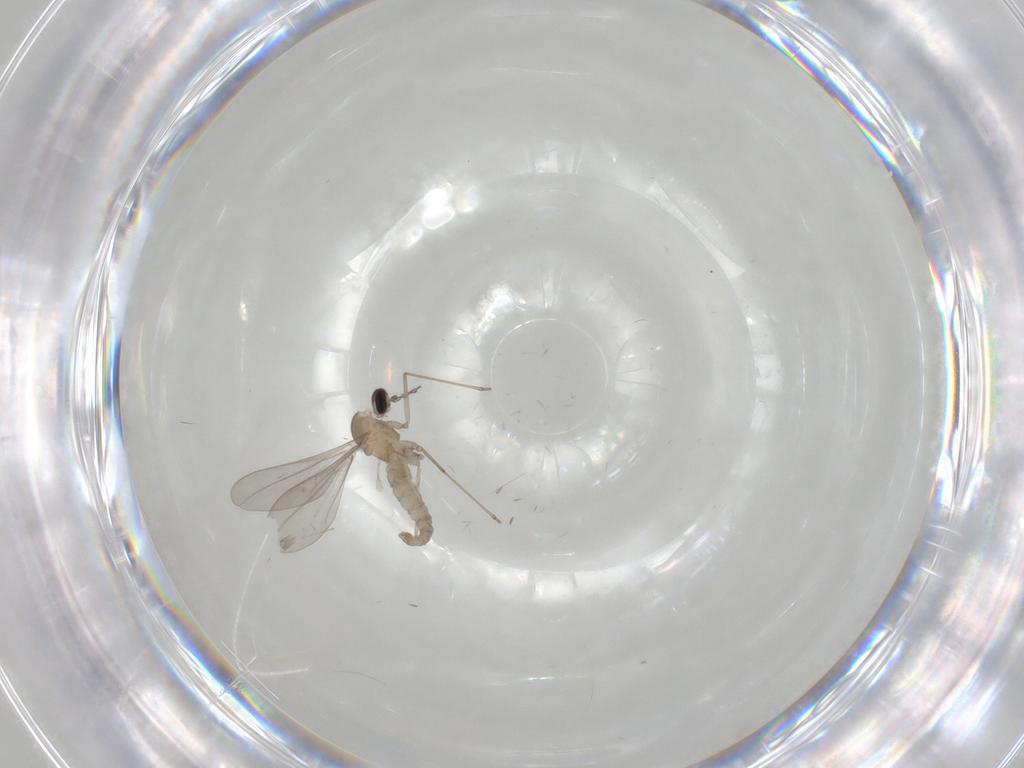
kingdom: Animalia
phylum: Arthropoda
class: Insecta
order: Diptera
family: Cecidomyiidae
